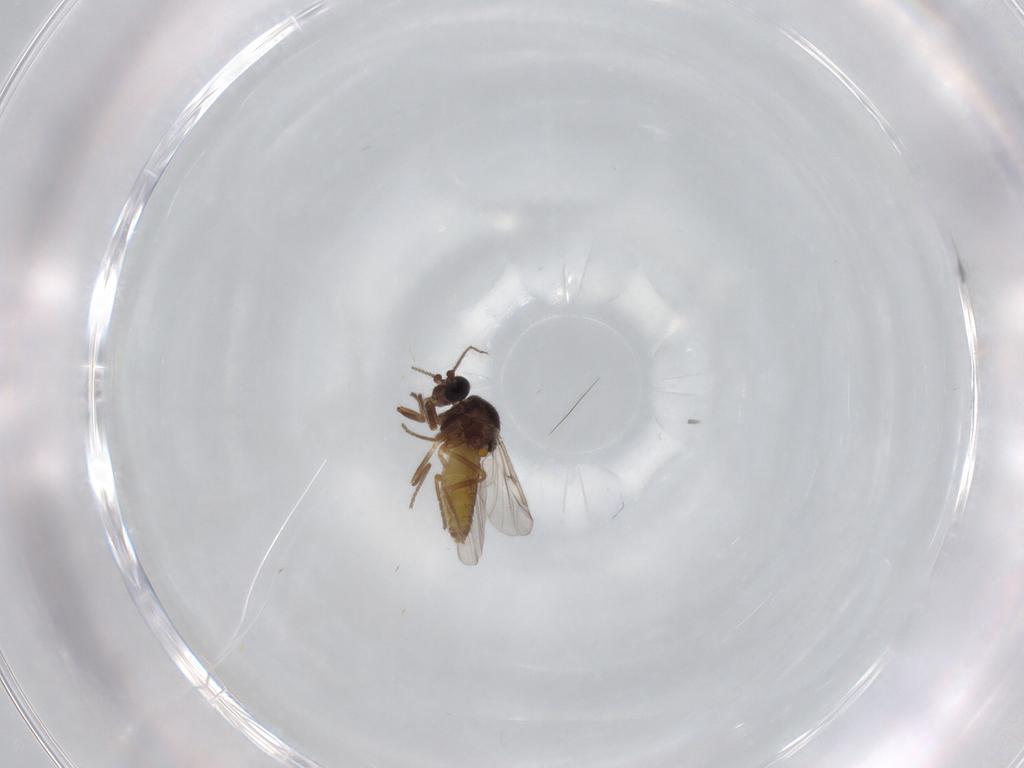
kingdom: Animalia
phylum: Arthropoda
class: Insecta
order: Diptera
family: Ceratopogonidae
